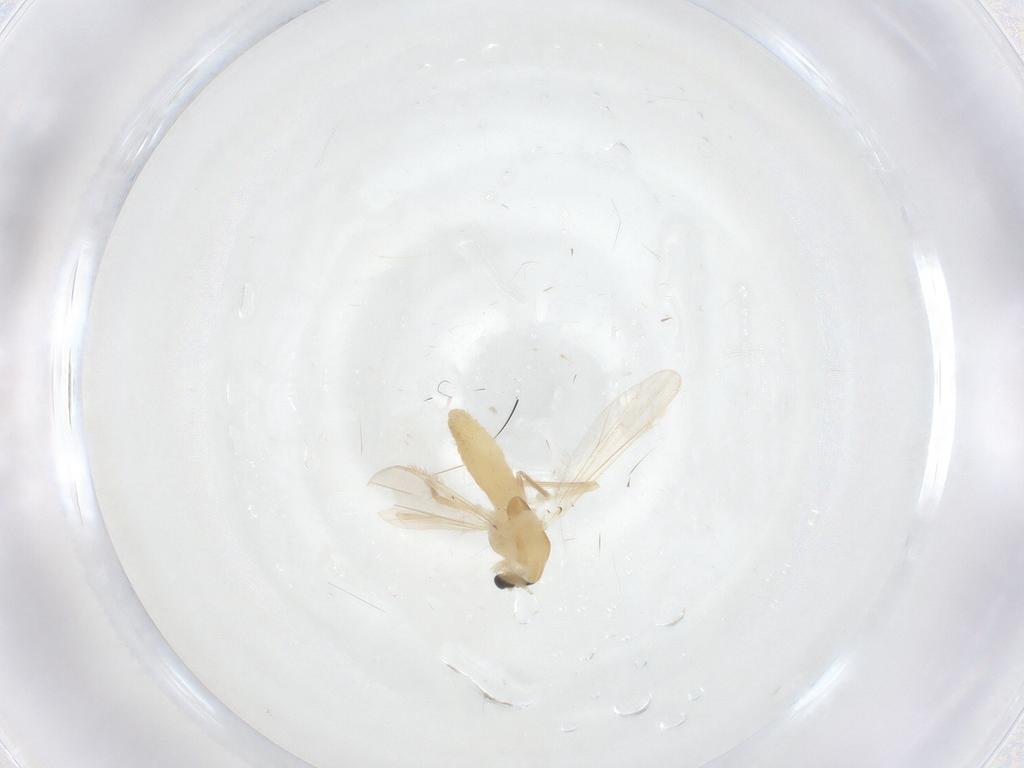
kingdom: Animalia
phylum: Arthropoda
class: Insecta
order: Diptera
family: Chironomidae
